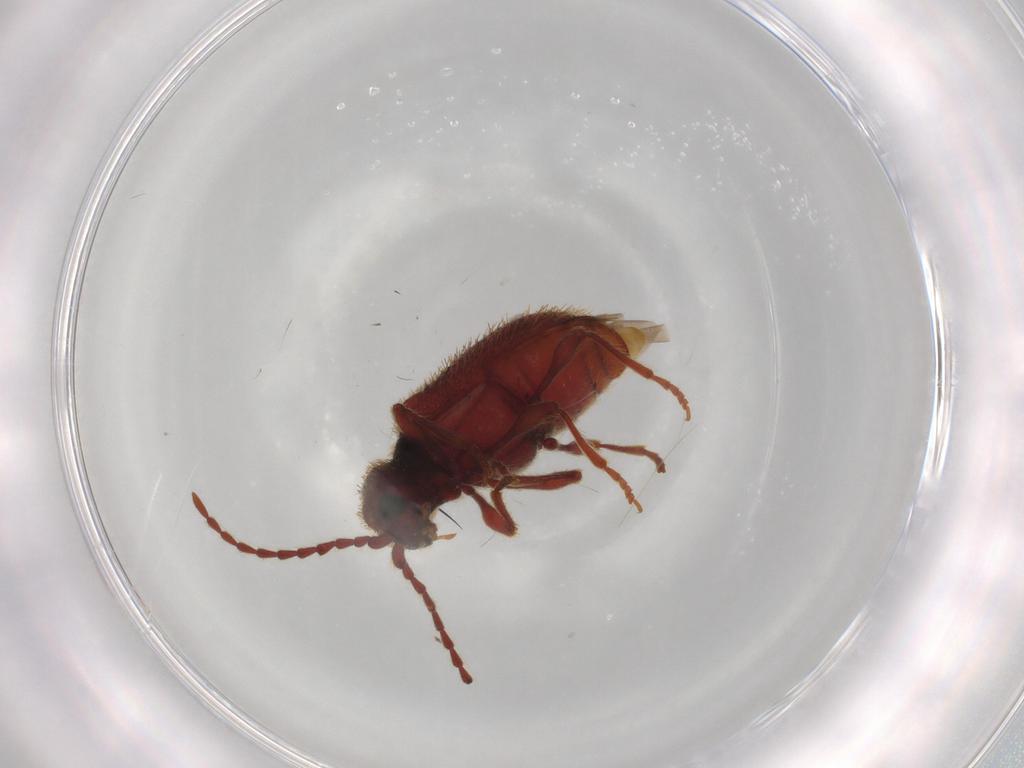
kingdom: Animalia
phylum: Arthropoda
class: Insecta
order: Coleoptera
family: Ptinidae
